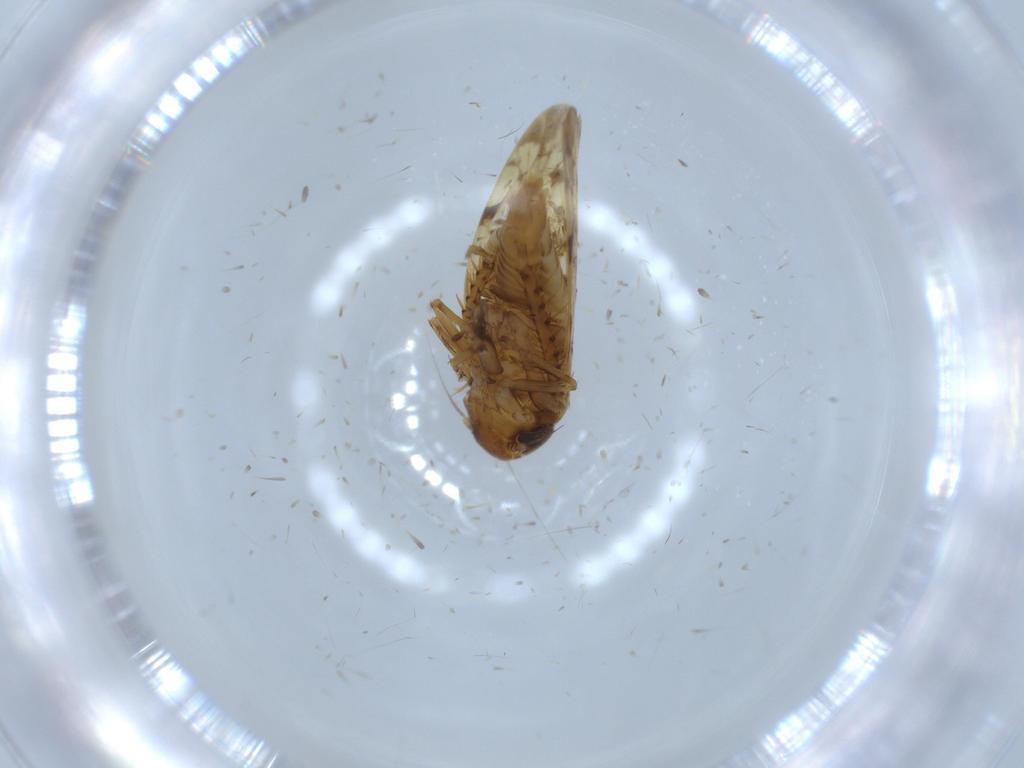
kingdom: Animalia
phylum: Arthropoda
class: Insecta
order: Hemiptera
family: Cicadellidae
